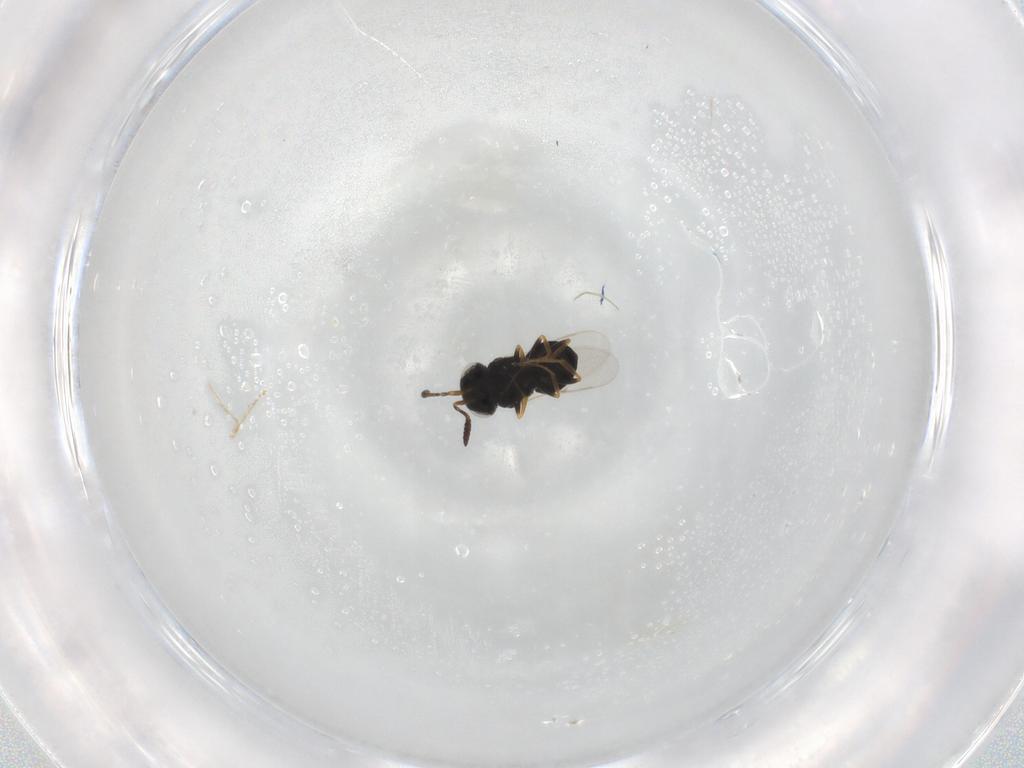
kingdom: Animalia
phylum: Arthropoda
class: Insecta
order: Coleoptera
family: Curculionidae
